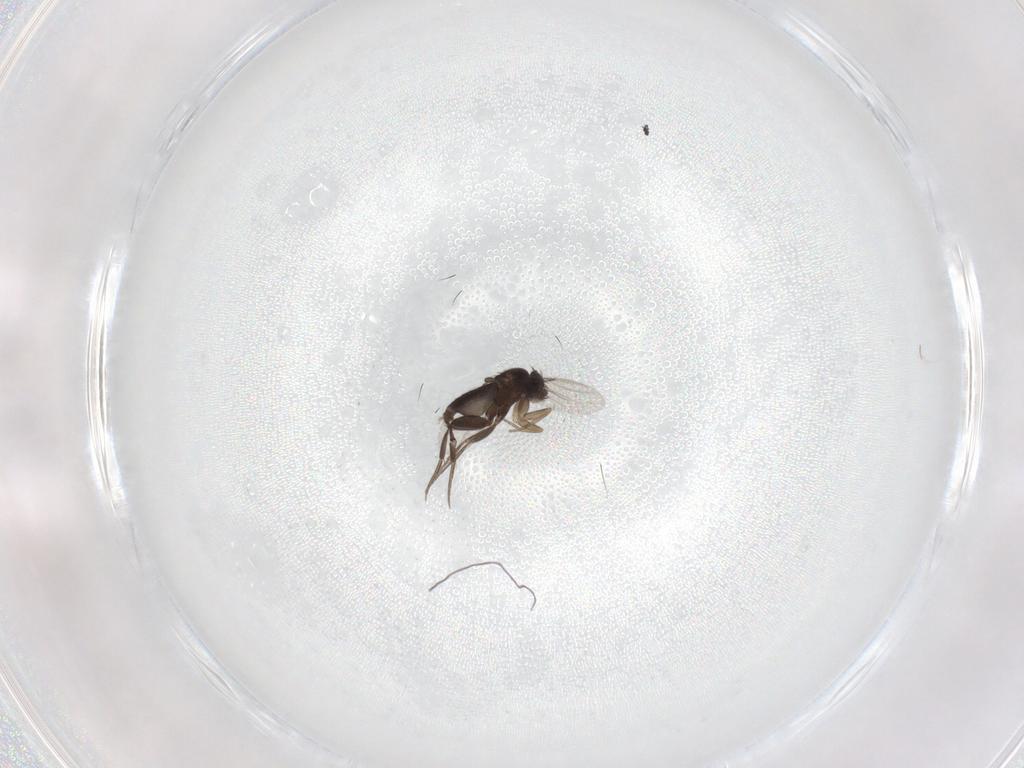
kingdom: Animalia
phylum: Arthropoda
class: Insecta
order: Diptera
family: Phoridae
